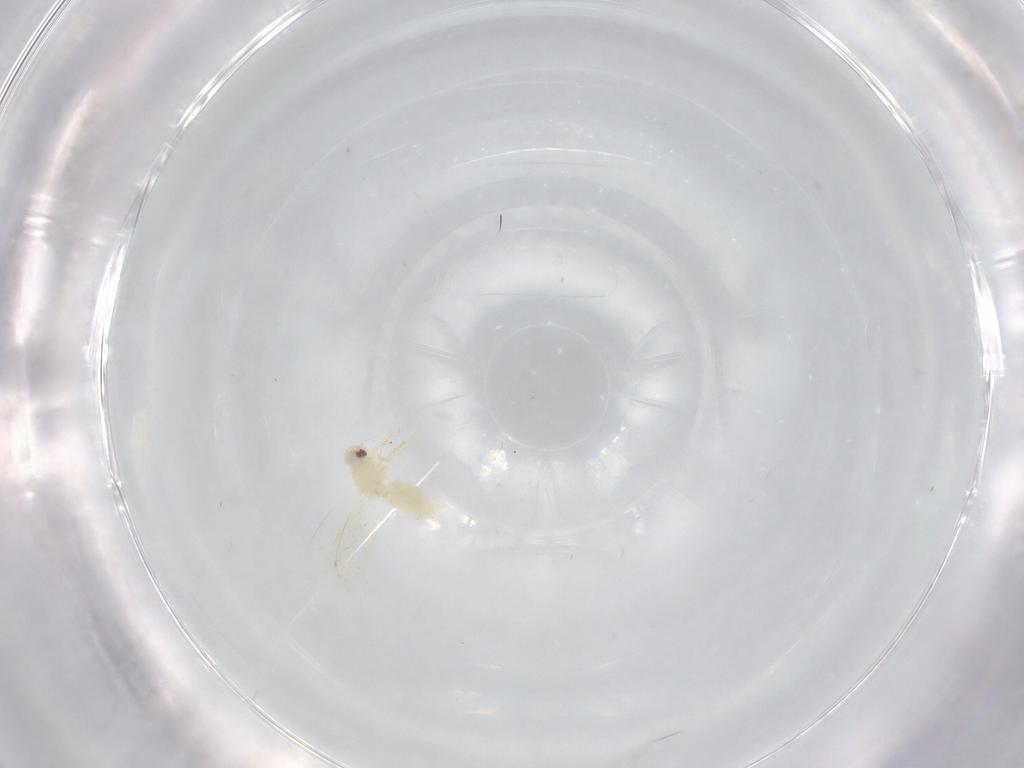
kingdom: Animalia
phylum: Arthropoda
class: Insecta
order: Hemiptera
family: Aleyrodidae
